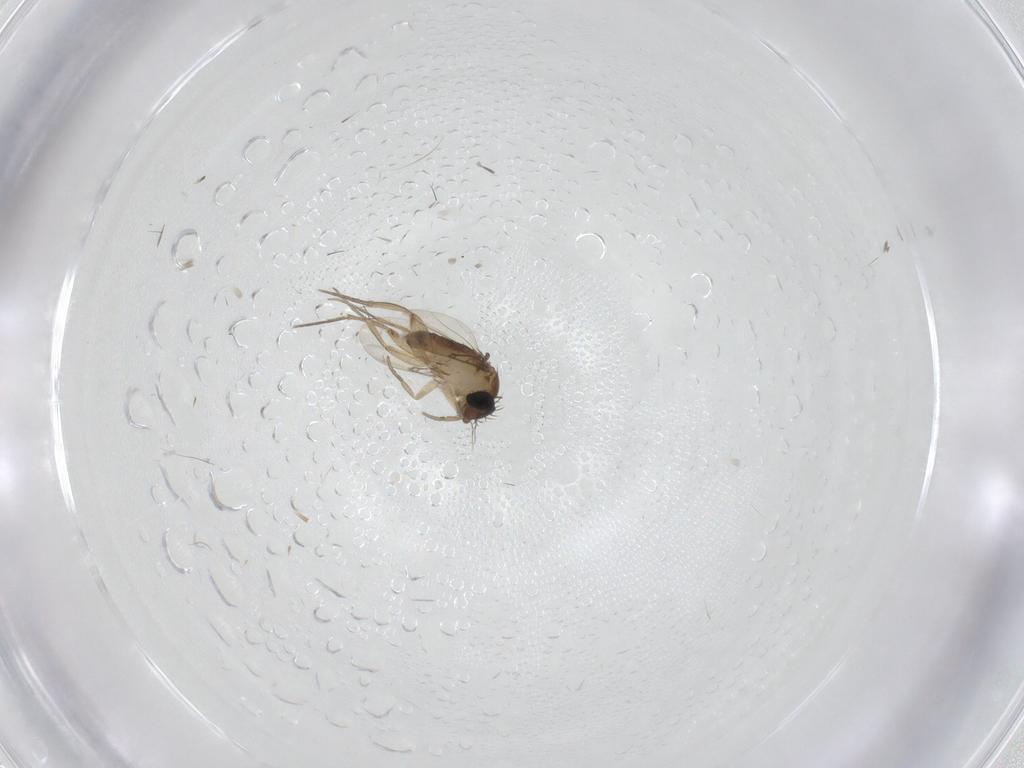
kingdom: Animalia
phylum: Arthropoda
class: Insecta
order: Diptera
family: Phoridae
